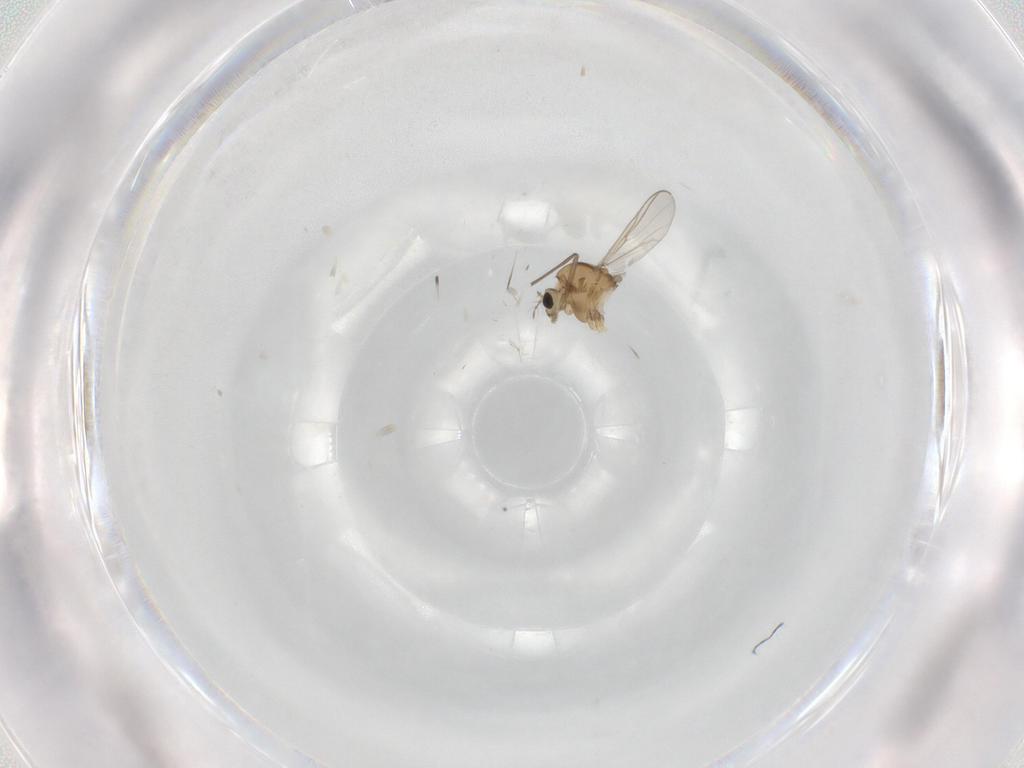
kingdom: Animalia
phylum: Arthropoda
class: Insecta
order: Diptera
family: Chironomidae
